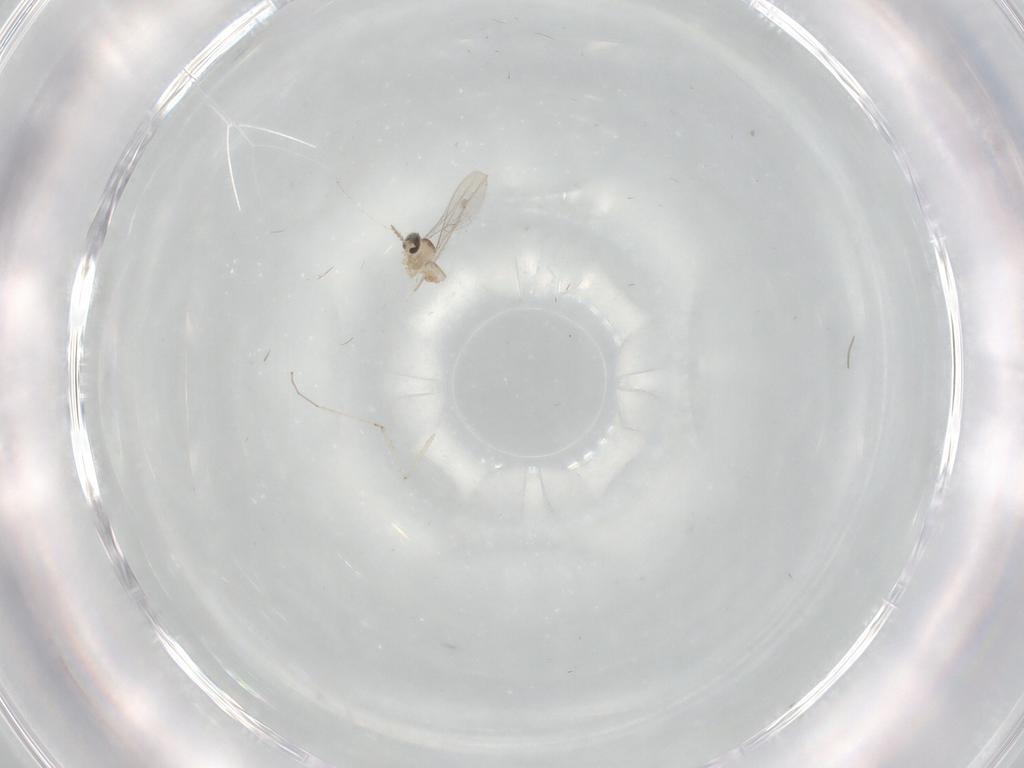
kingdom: Animalia
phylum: Arthropoda
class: Insecta
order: Diptera
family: Cecidomyiidae
